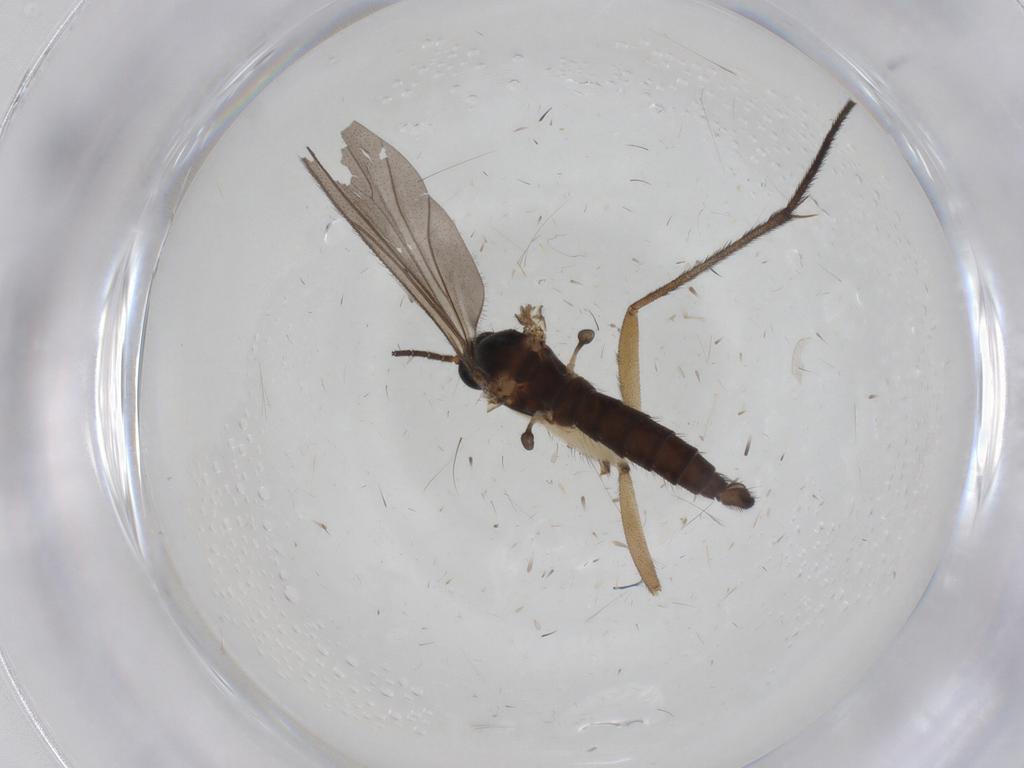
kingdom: Animalia
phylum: Arthropoda
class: Insecta
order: Diptera
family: Sciaridae
